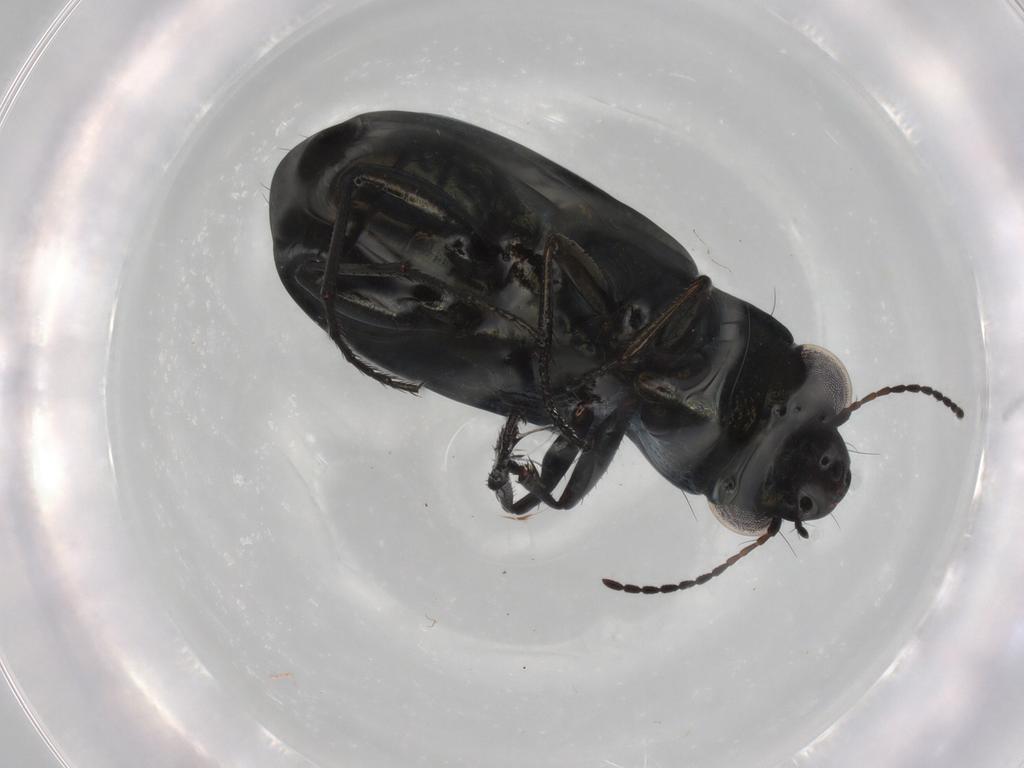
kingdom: Animalia
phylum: Arthropoda
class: Insecta
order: Coleoptera
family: Carabidae
